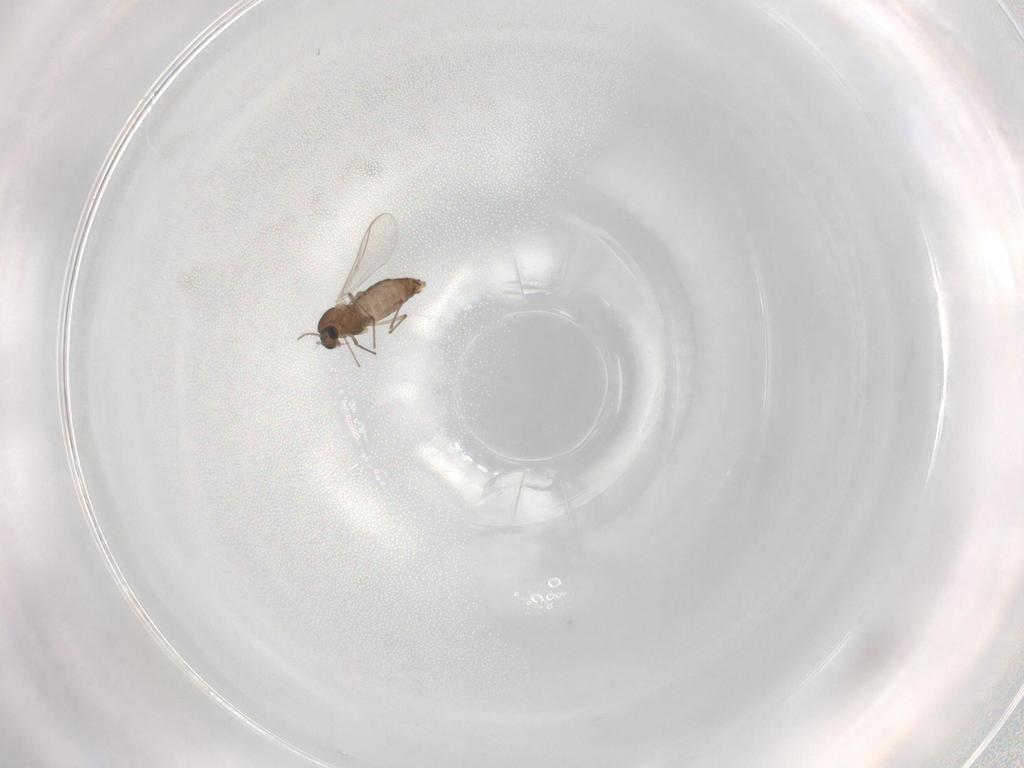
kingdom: Animalia
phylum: Arthropoda
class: Insecta
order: Diptera
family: Chironomidae
